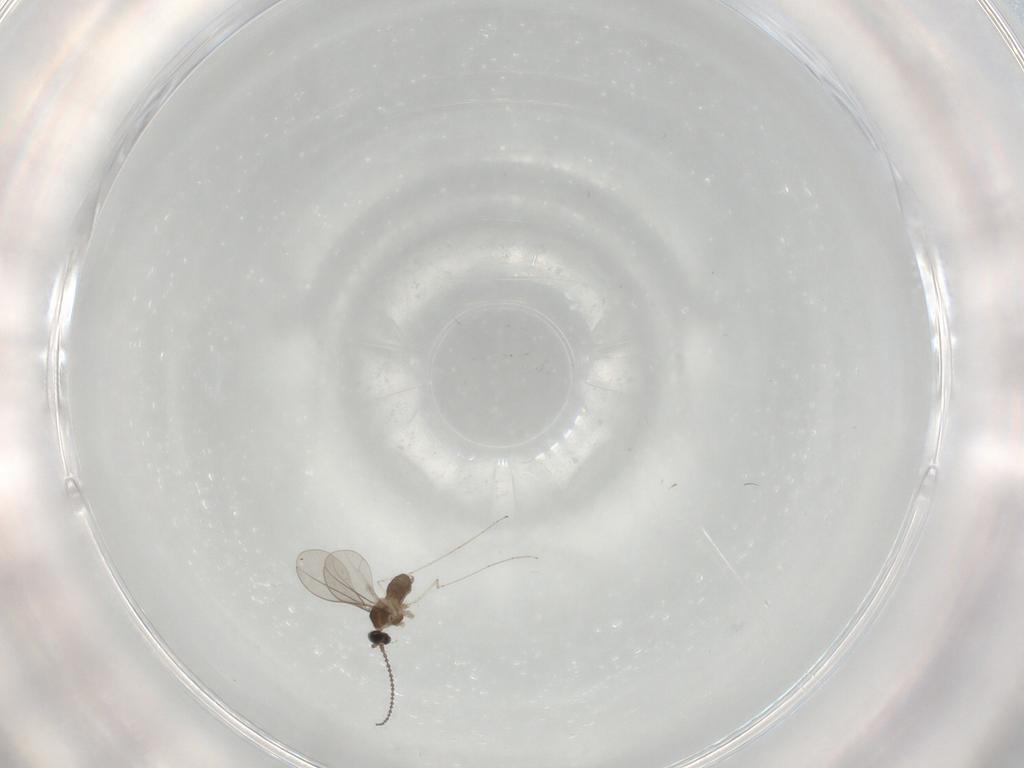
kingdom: Animalia
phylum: Arthropoda
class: Insecta
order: Diptera
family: Cecidomyiidae
